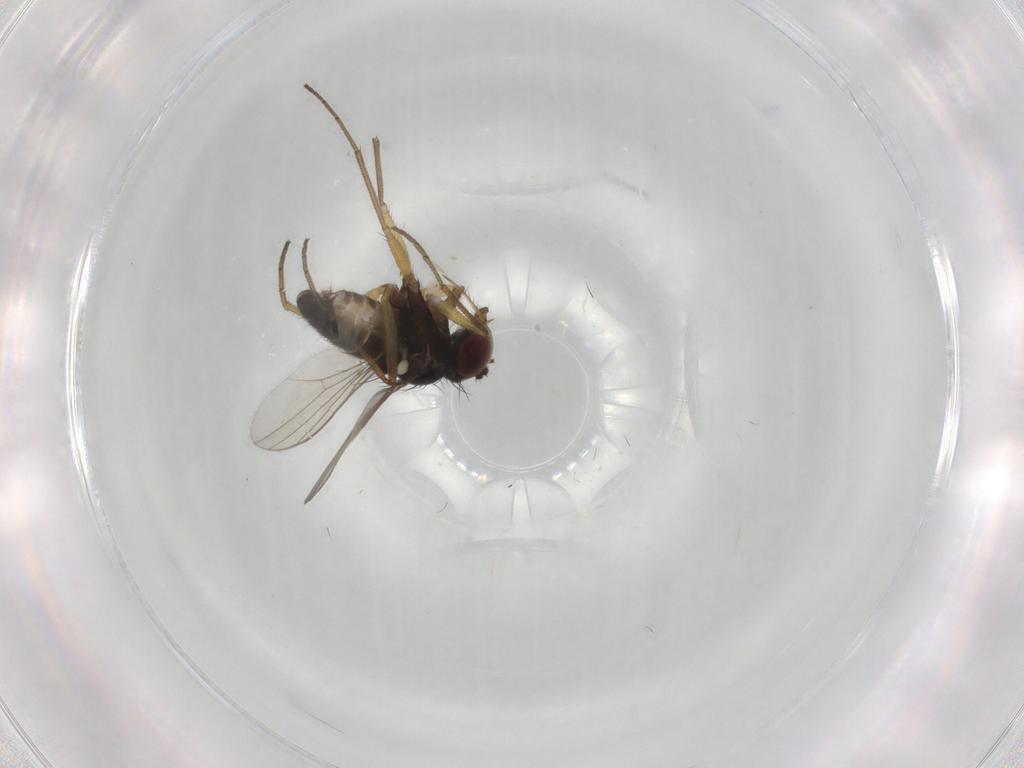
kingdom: Animalia
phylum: Arthropoda
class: Insecta
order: Diptera
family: Dolichopodidae
